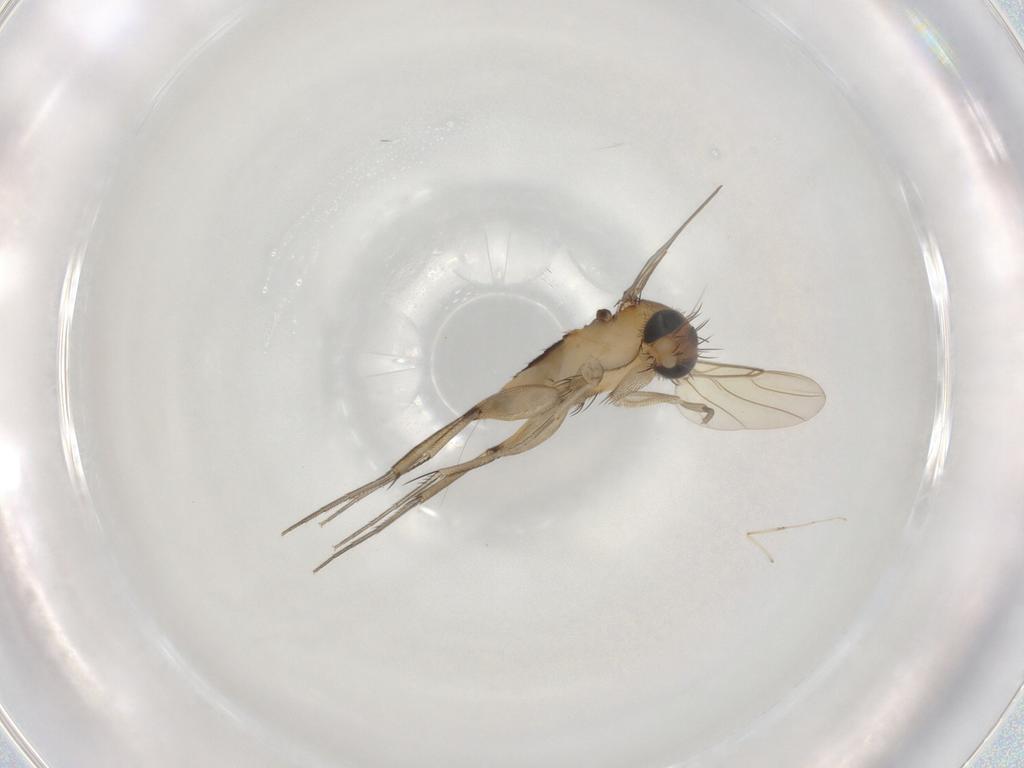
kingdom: Animalia
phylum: Arthropoda
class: Insecta
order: Diptera
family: Phoridae
